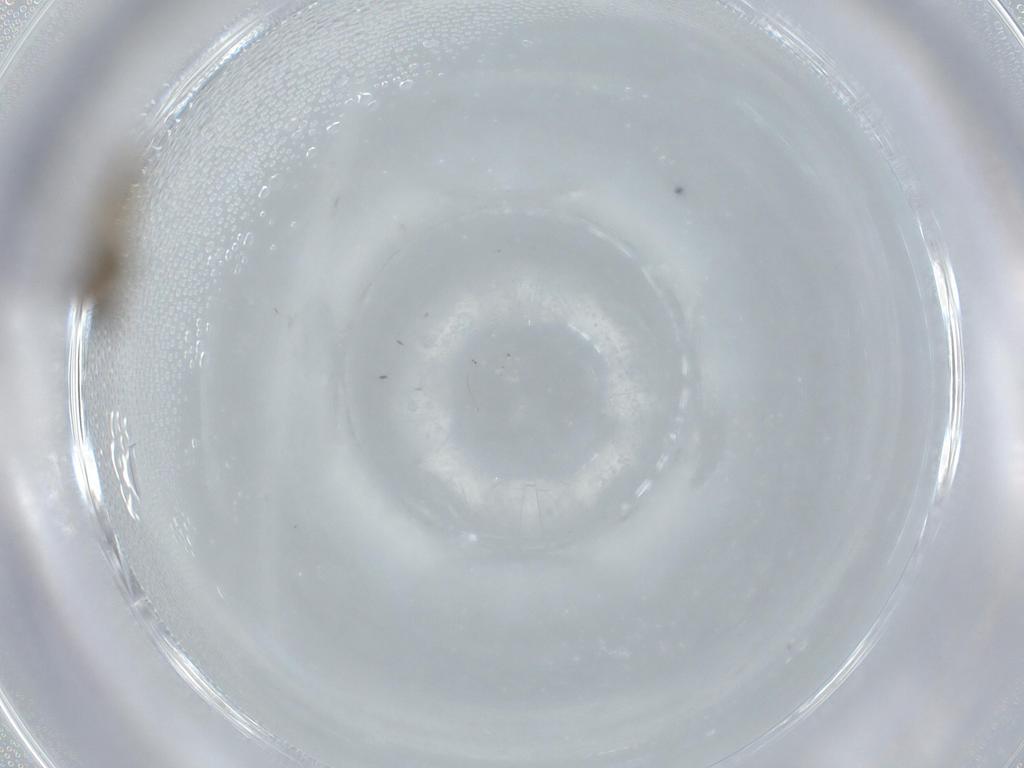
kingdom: Animalia
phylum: Arthropoda
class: Insecta
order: Diptera
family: Cecidomyiidae
